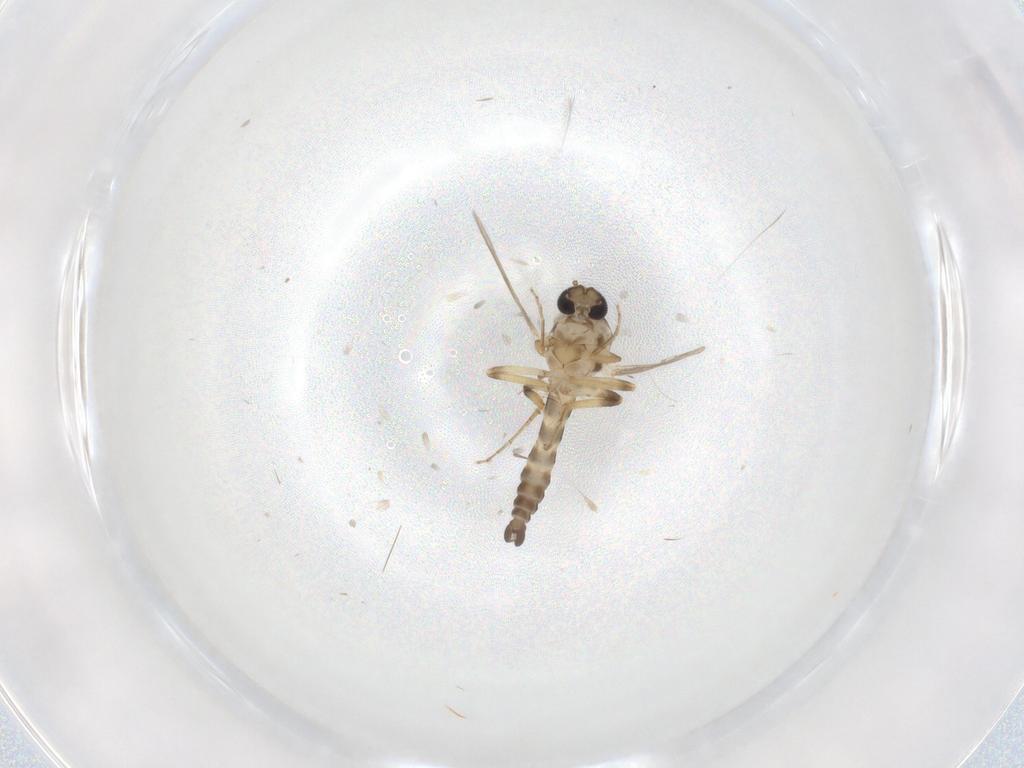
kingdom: Animalia
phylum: Arthropoda
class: Insecta
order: Diptera
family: Ceratopogonidae
